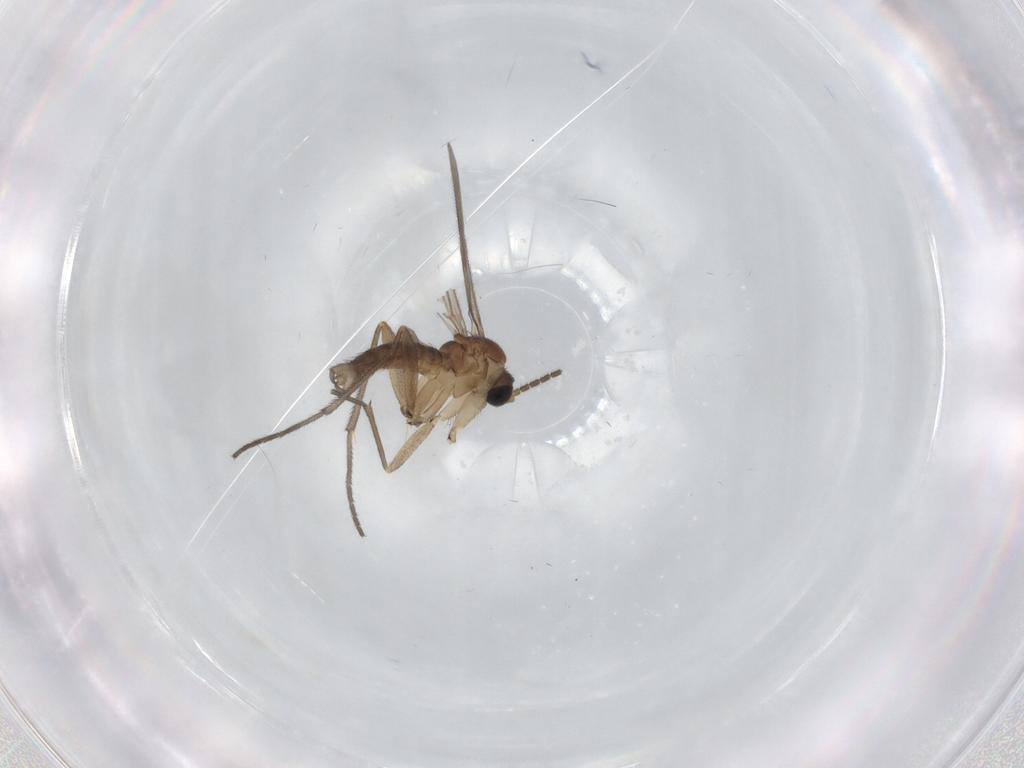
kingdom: Animalia
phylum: Arthropoda
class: Insecta
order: Diptera
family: Sciaridae
